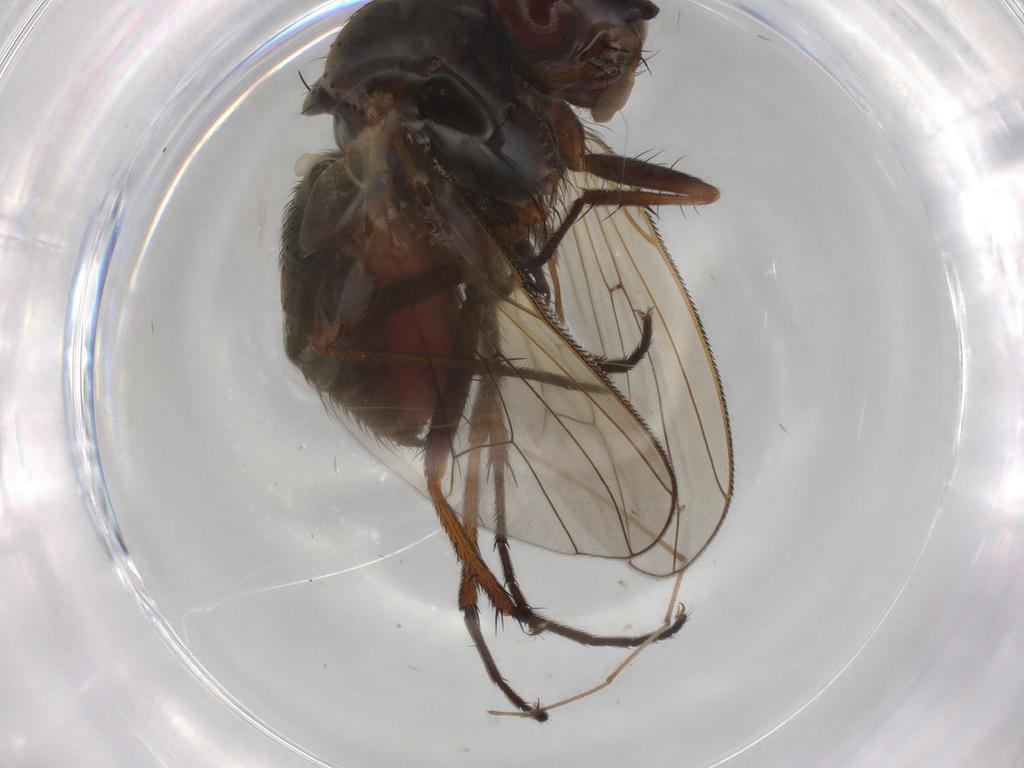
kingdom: Animalia
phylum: Arthropoda
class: Insecta
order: Diptera
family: Anthomyiidae
